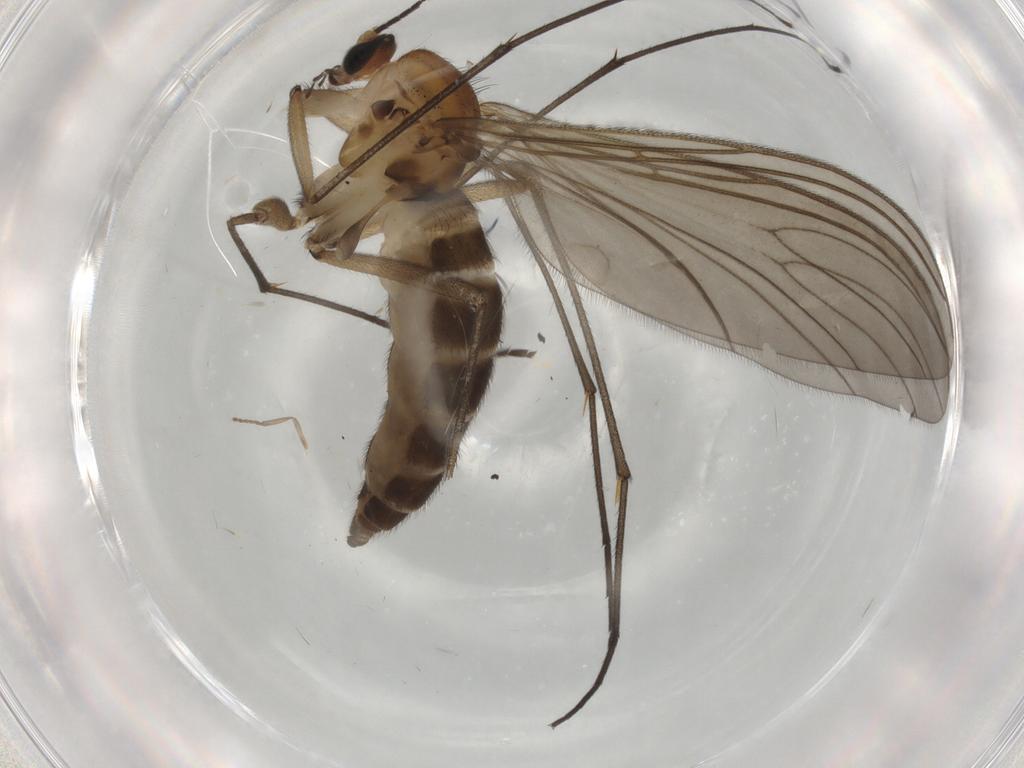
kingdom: Animalia
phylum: Arthropoda
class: Insecta
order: Diptera
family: Sciaridae
